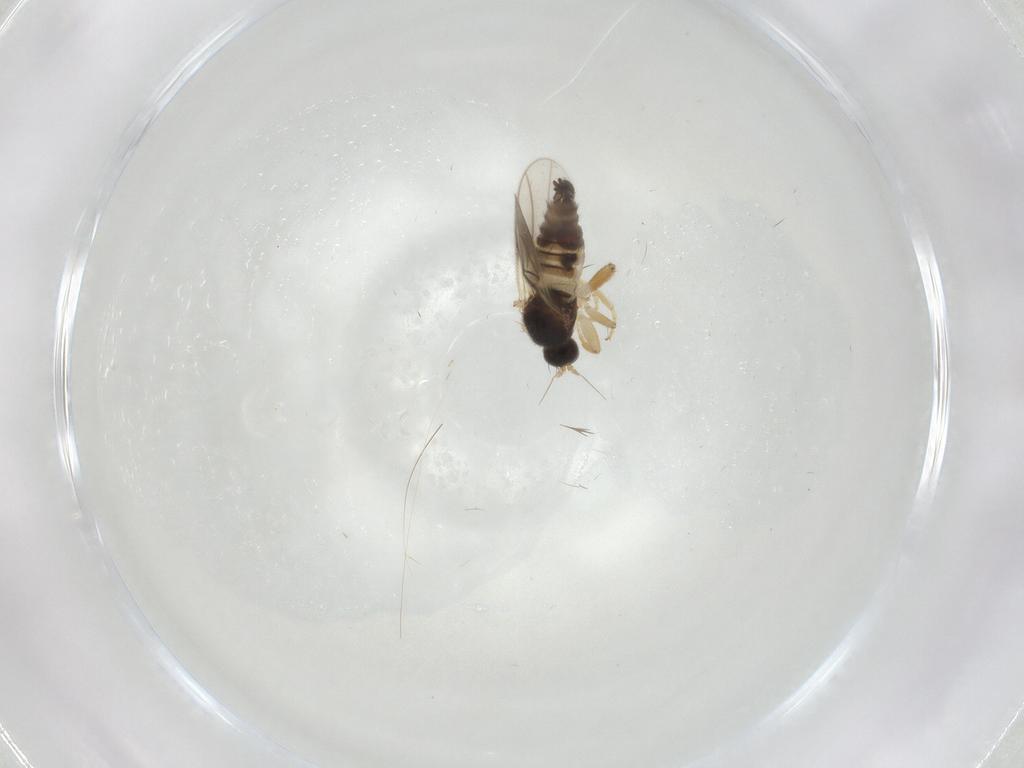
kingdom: Animalia
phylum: Arthropoda
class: Insecta
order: Diptera
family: Hybotidae
